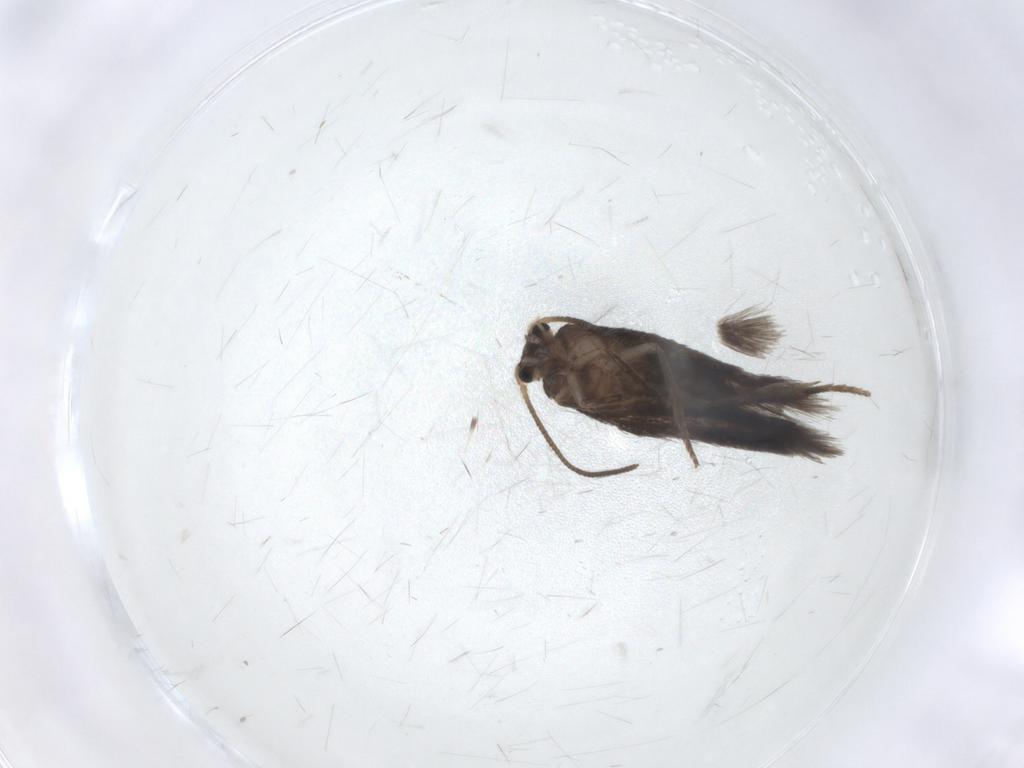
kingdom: Animalia
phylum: Arthropoda
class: Insecta
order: Lepidoptera
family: Nepticulidae
